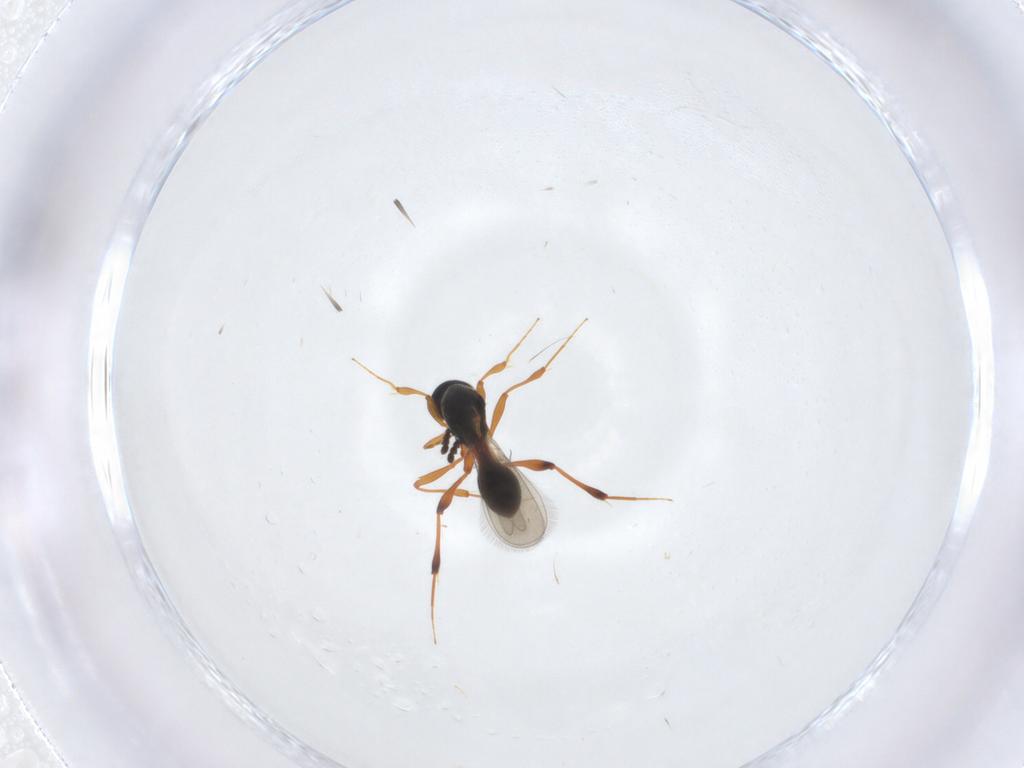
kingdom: Animalia
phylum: Arthropoda
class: Insecta
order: Hymenoptera
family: Platygastridae
